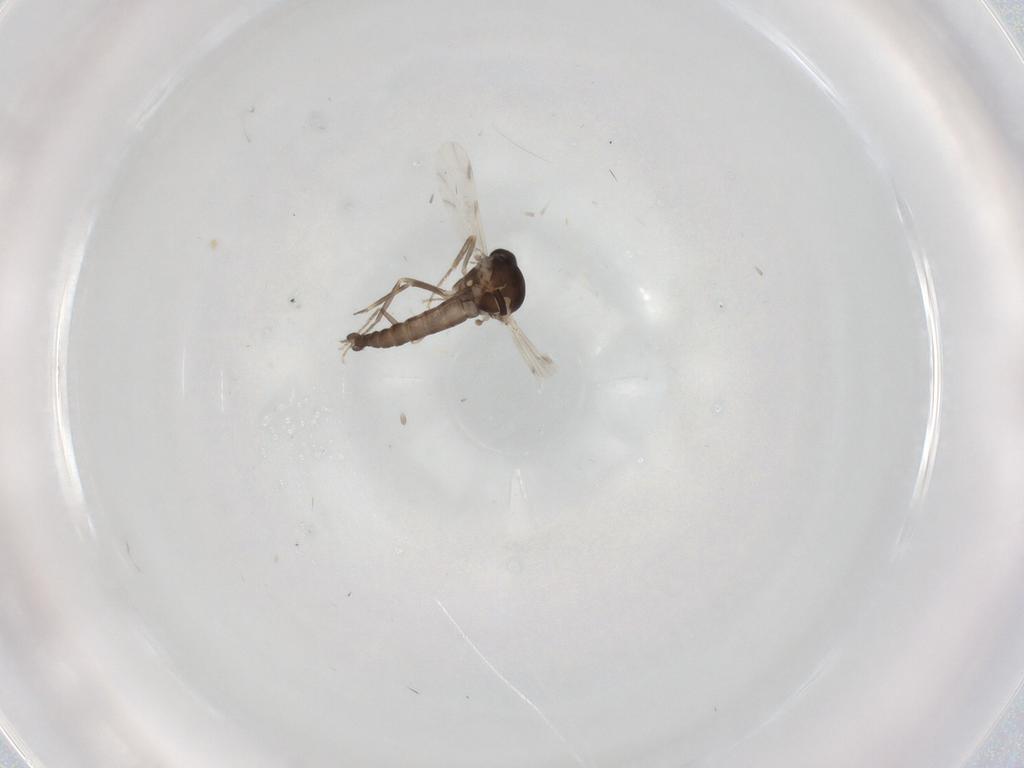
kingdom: Animalia
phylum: Arthropoda
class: Insecta
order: Diptera
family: Ceratopogonidae
